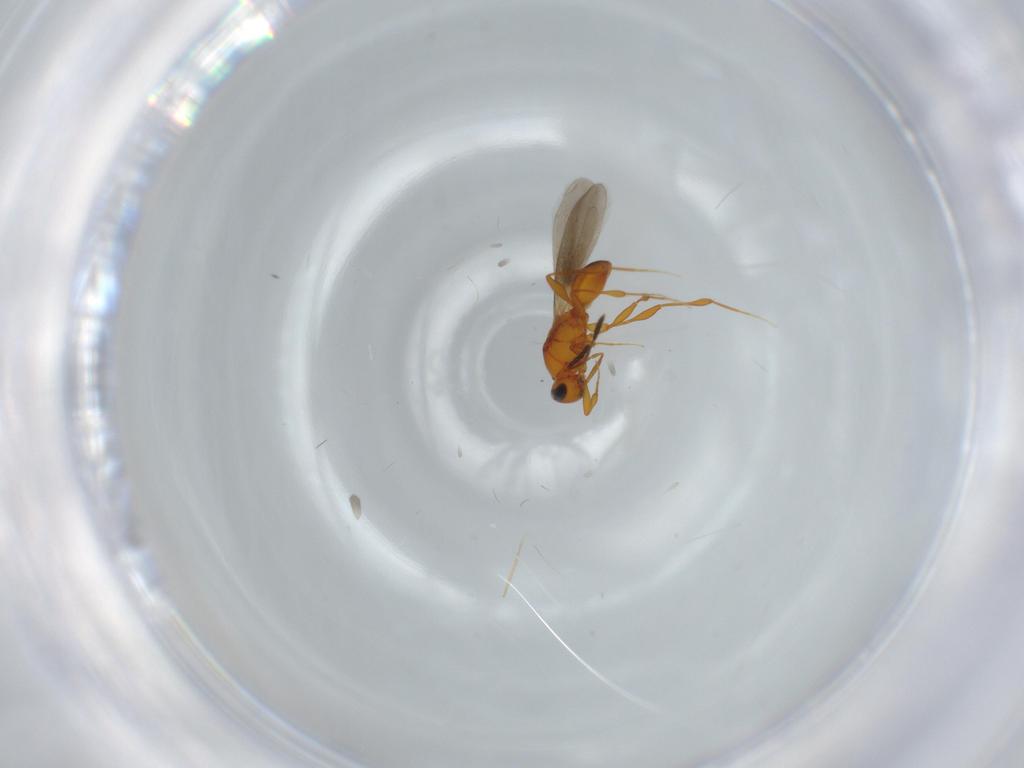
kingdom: Animalia
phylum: Arthropoda
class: Insecta
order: Hymenoptera
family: Platygastridae
